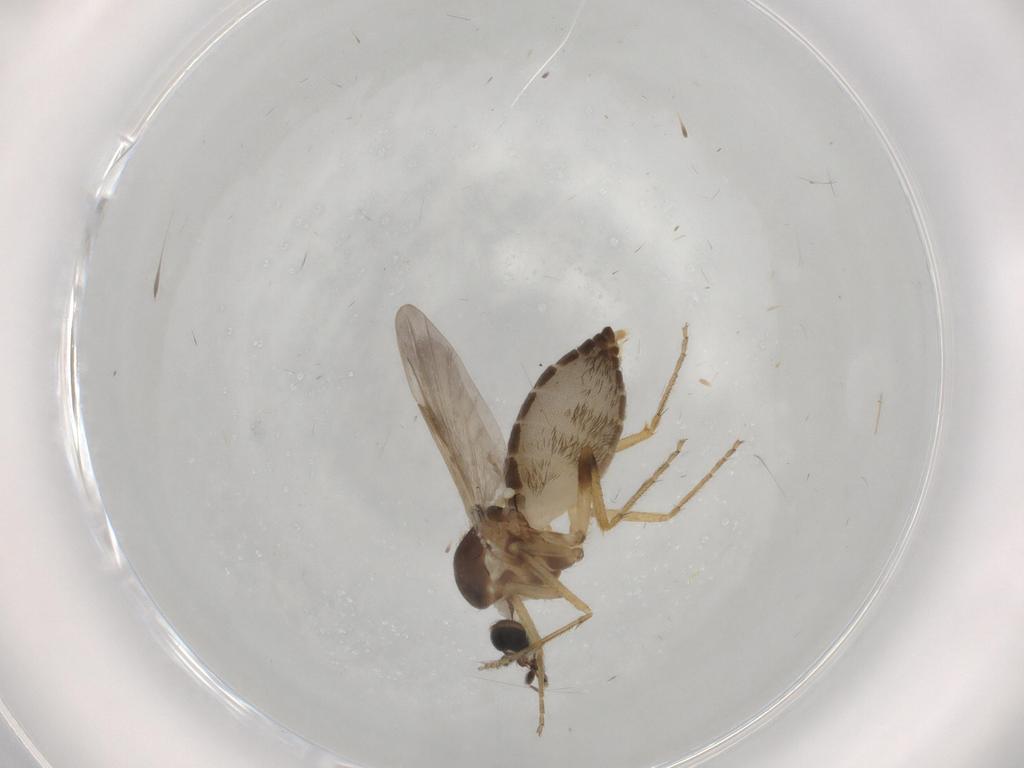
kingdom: Animalia
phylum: Arthropoda
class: Insecta
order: Diptera
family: Ceratopogonidae
